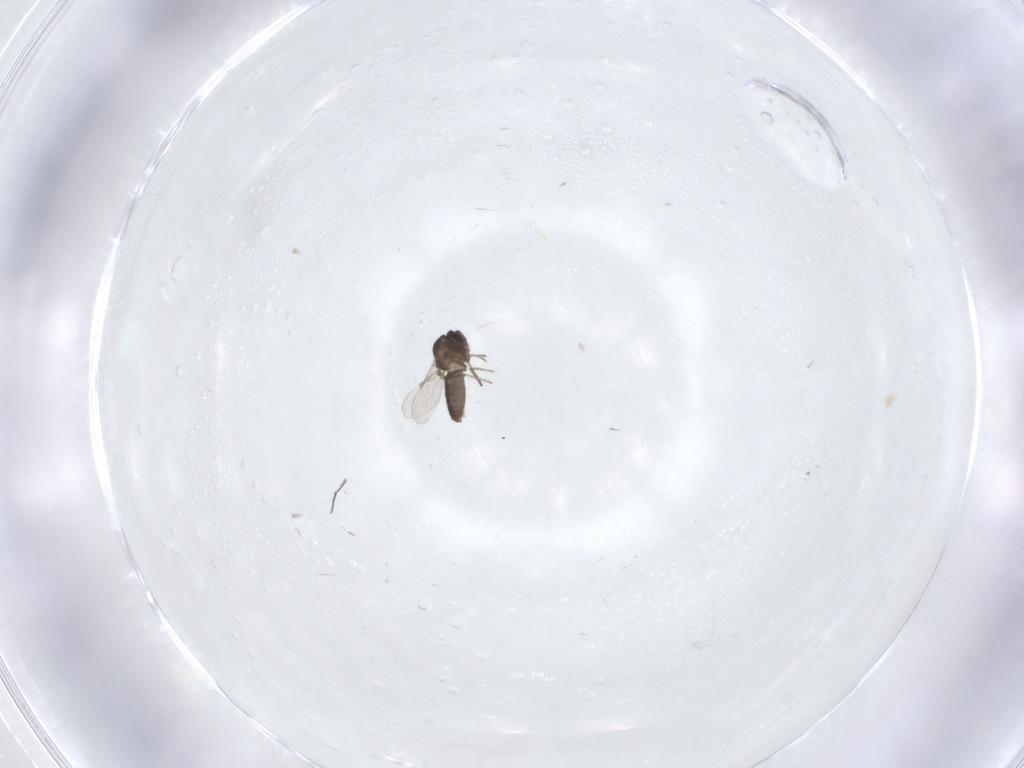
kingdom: Animalia
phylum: Arthropoda
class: Insecta
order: Diptera
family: Ceratopogonidae
